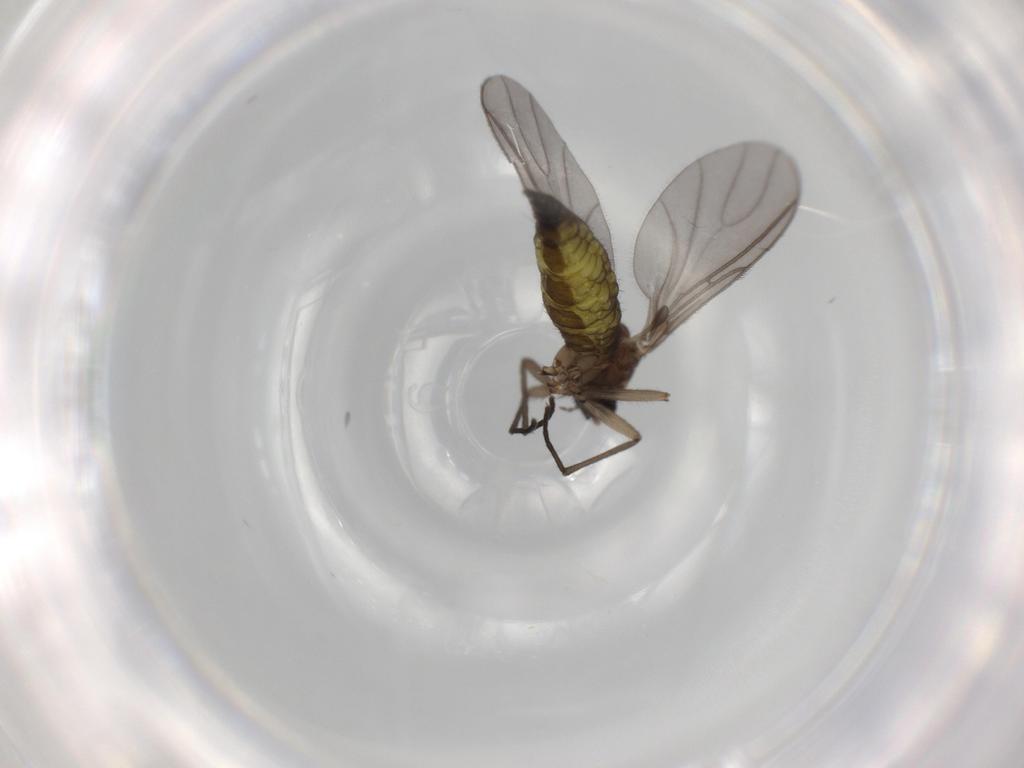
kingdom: Animalia
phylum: Arthropoda
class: Insecta
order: Diptera
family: Sciaridae
